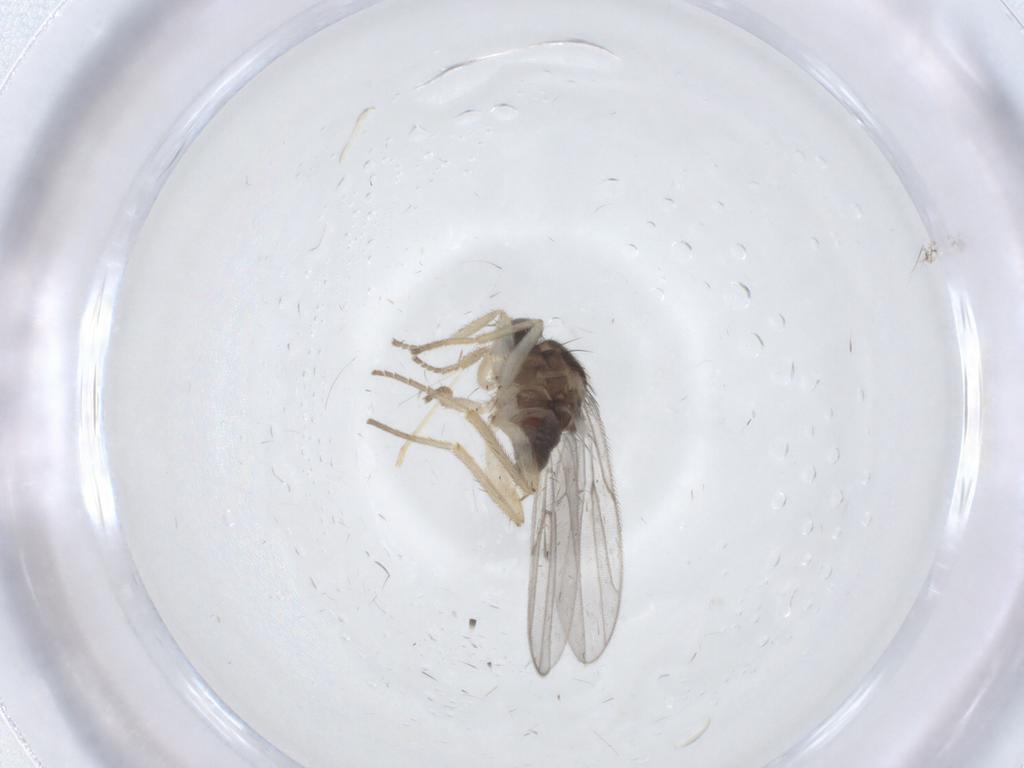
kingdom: Animalia
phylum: Arthropoda
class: Insecta
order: Diptera
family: Hybotidae
